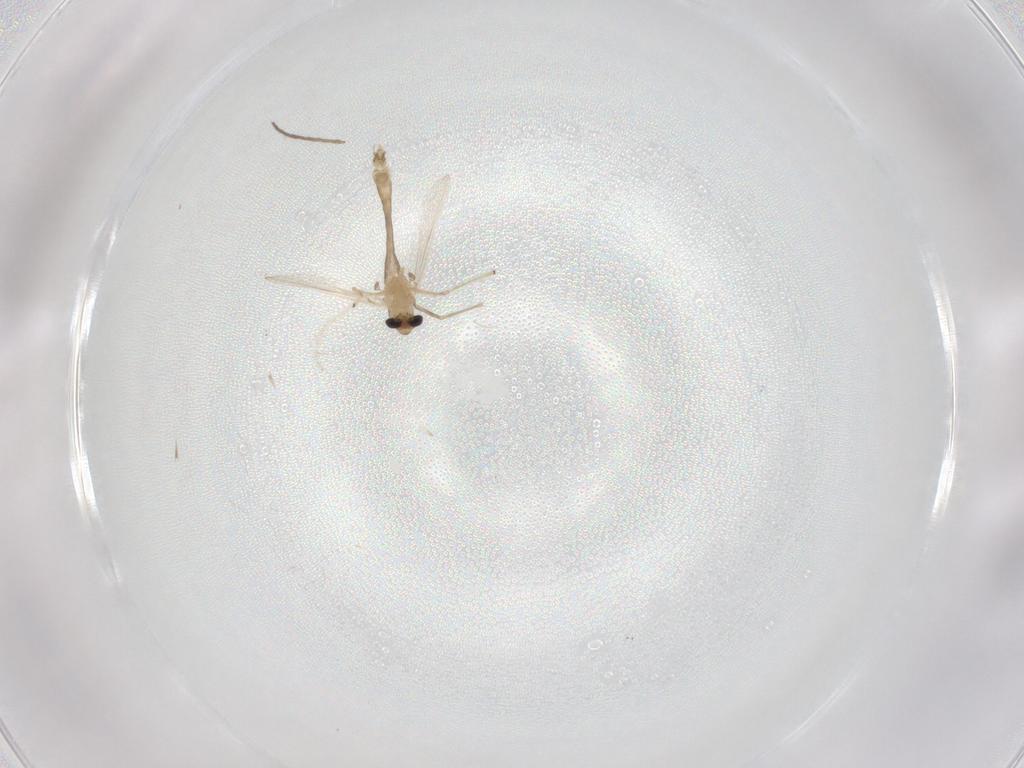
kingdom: Animalia
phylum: Arthropoda
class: Insecta
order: Diptera
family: Chironomidae
